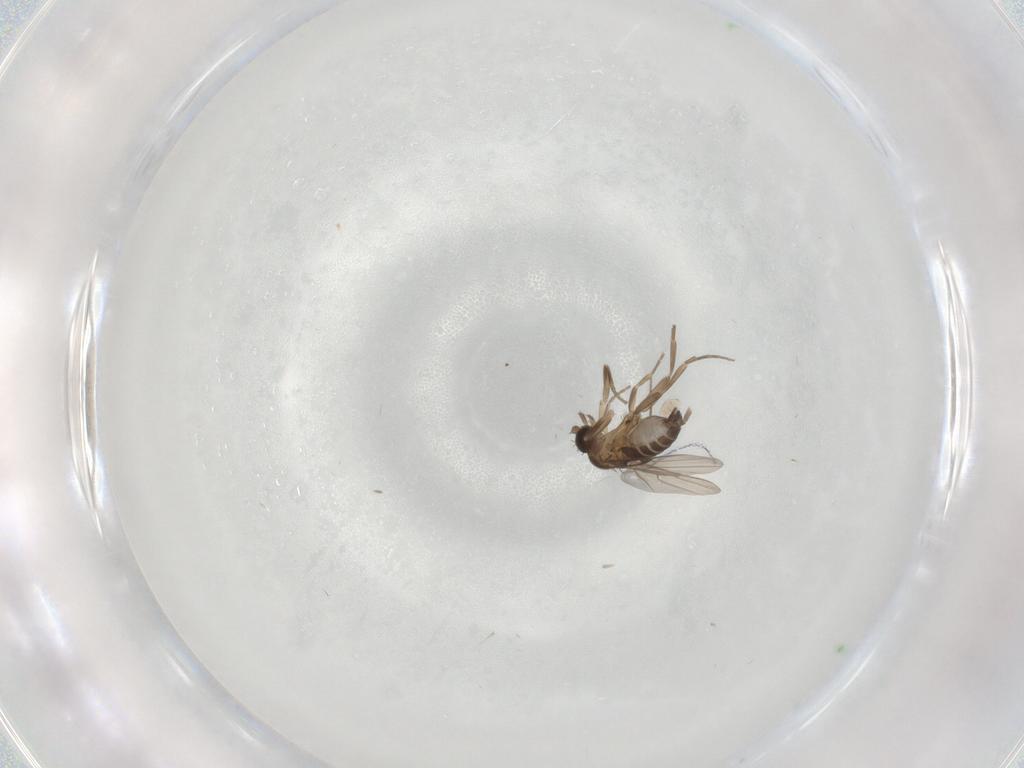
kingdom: Animalia
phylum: Arthropoda
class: Insecta
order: Diptera
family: Phoridae
